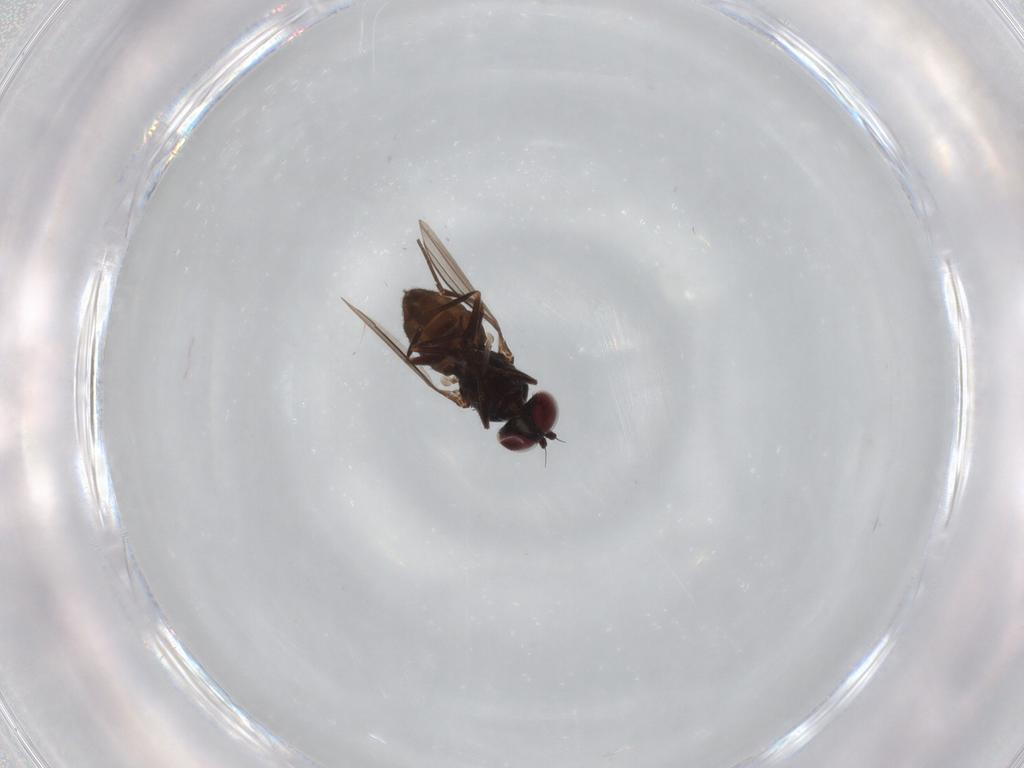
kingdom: Animalia
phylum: Arthropoda
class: Insecta
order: Diptera
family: Dolichopodidae
